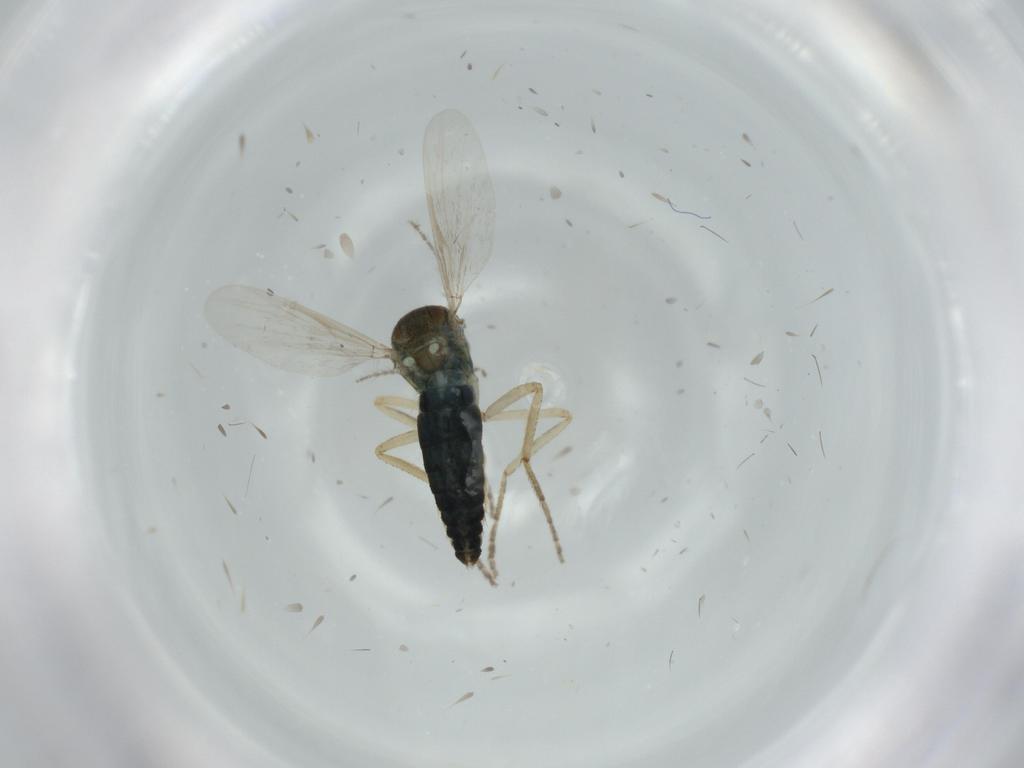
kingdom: Animalia
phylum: Arthropoda
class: Insecta
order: Diptera
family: Ceratopogonidae
